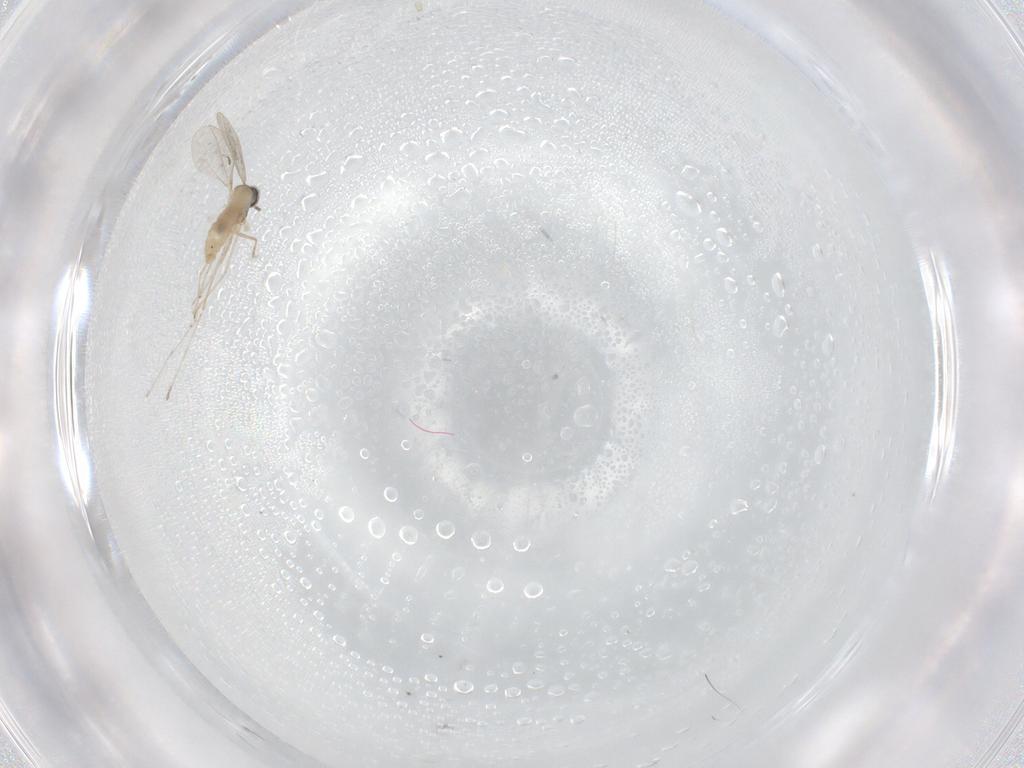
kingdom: Animalia
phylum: Arthropoda
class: Insecta
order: Diptera
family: Cecidomyiidae
